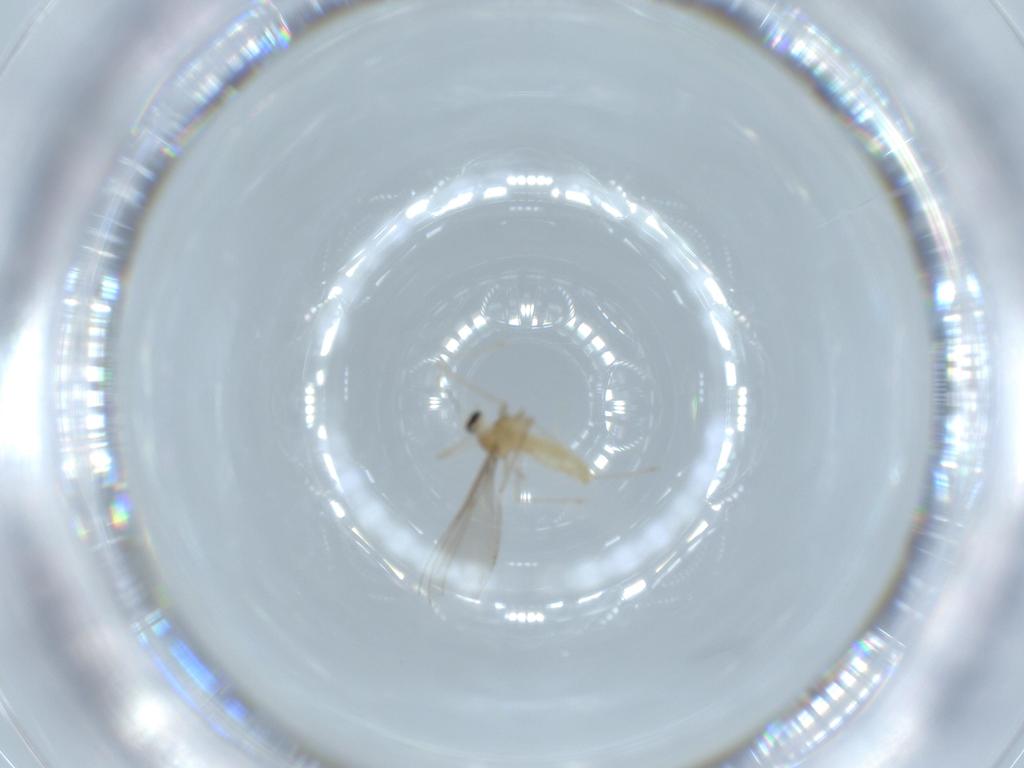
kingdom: Animalia
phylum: Arthropoda
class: Insecta
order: Diptera
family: Cecidomyiidae
